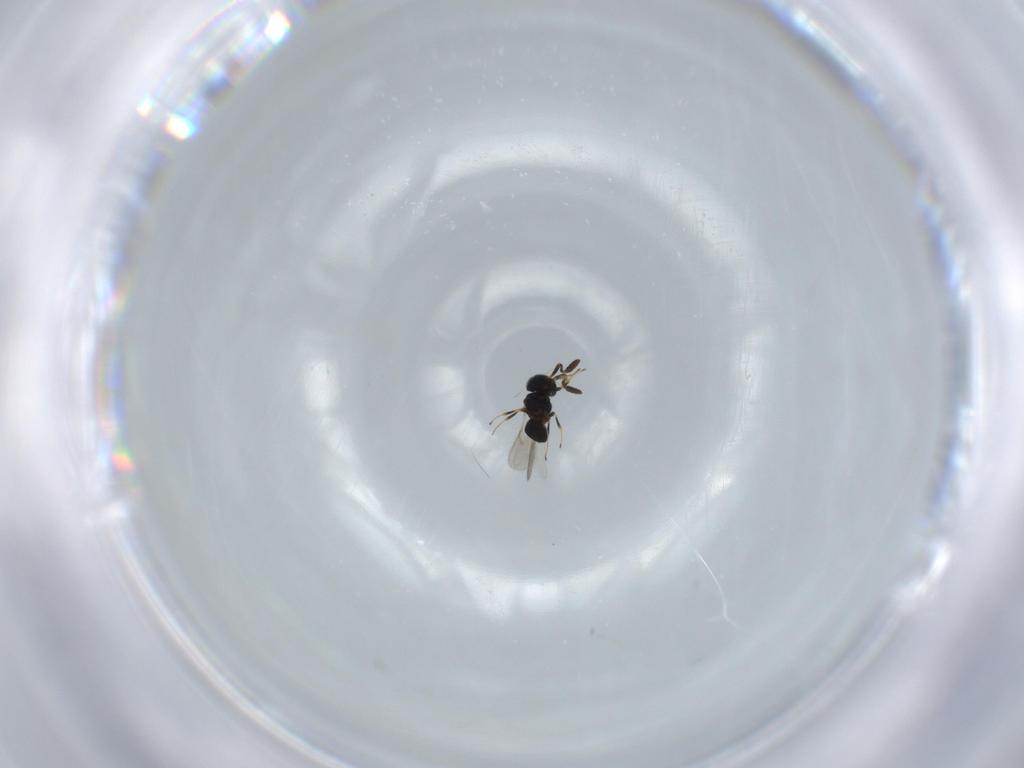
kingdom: Animalia
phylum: Arthropoda
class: Insecta
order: Hymenoptera
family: Scelionidae
